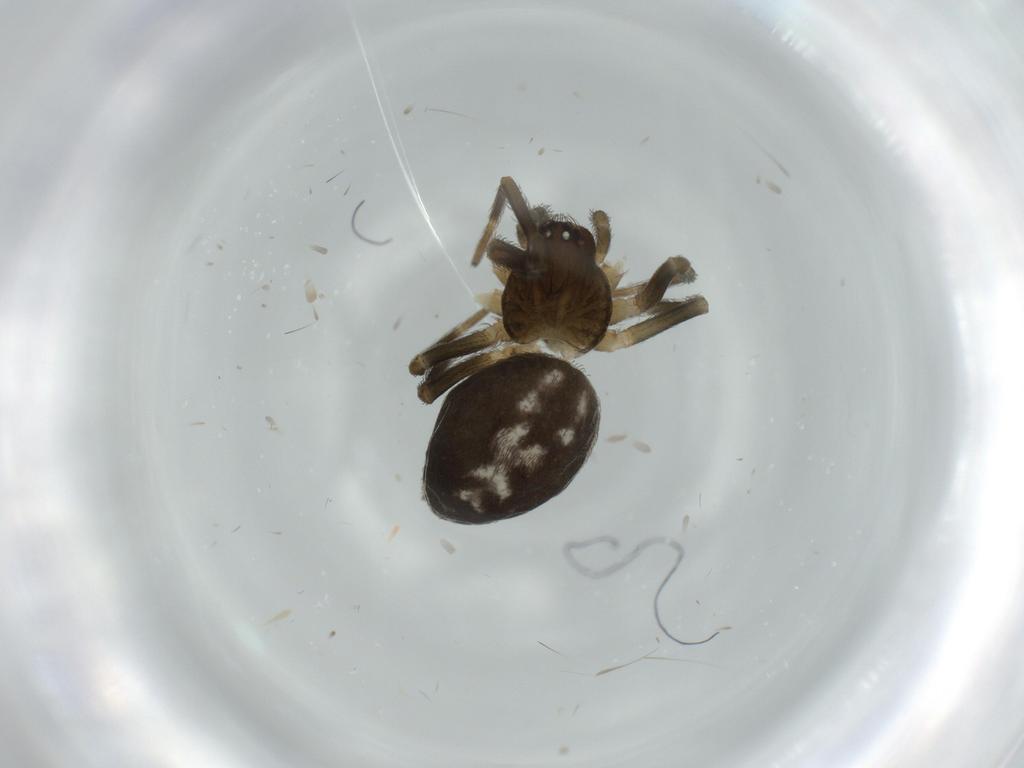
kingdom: Animalia
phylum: Arthropoda
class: Arachnida
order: Araneae
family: Dictynidae
